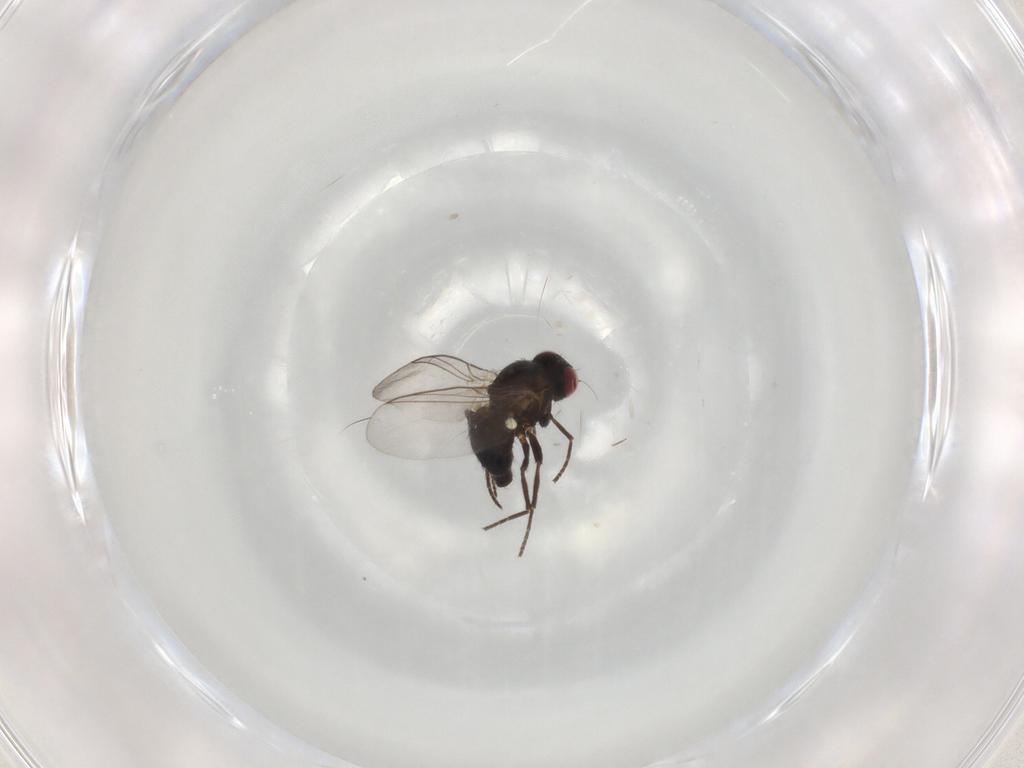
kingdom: Animalia
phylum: Arthropoda
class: Insecta
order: Diptera
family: Agromyzidae
